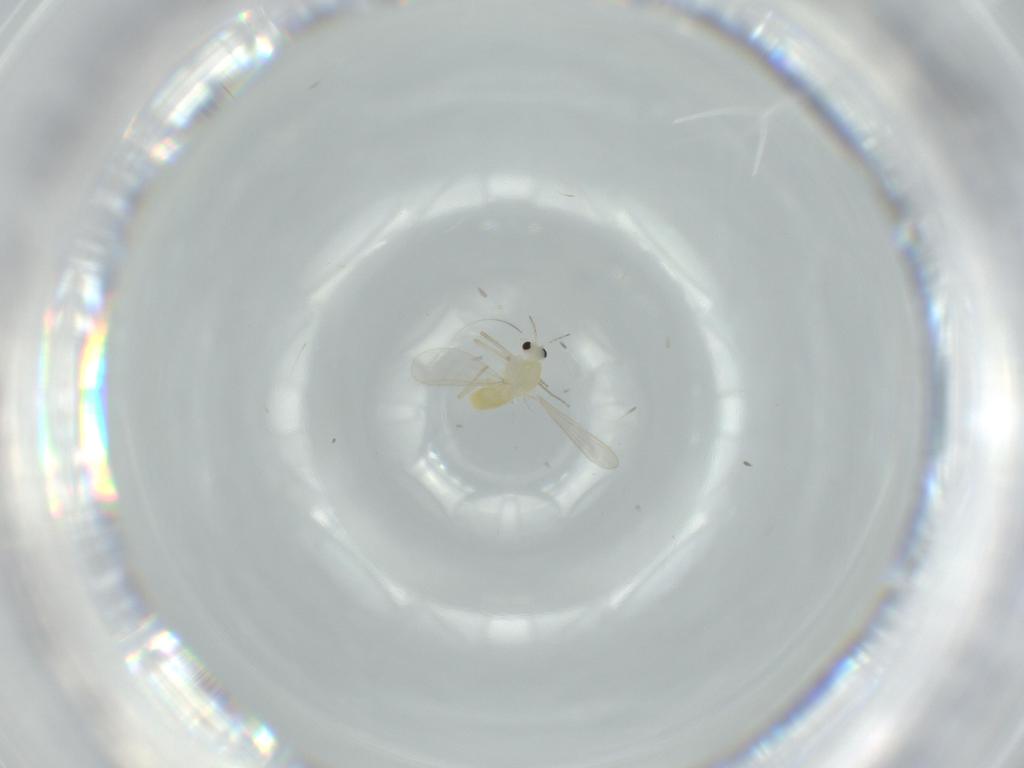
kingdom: Animalia
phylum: Arthropoda
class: Insecta
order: Diptera
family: Chironomidae
